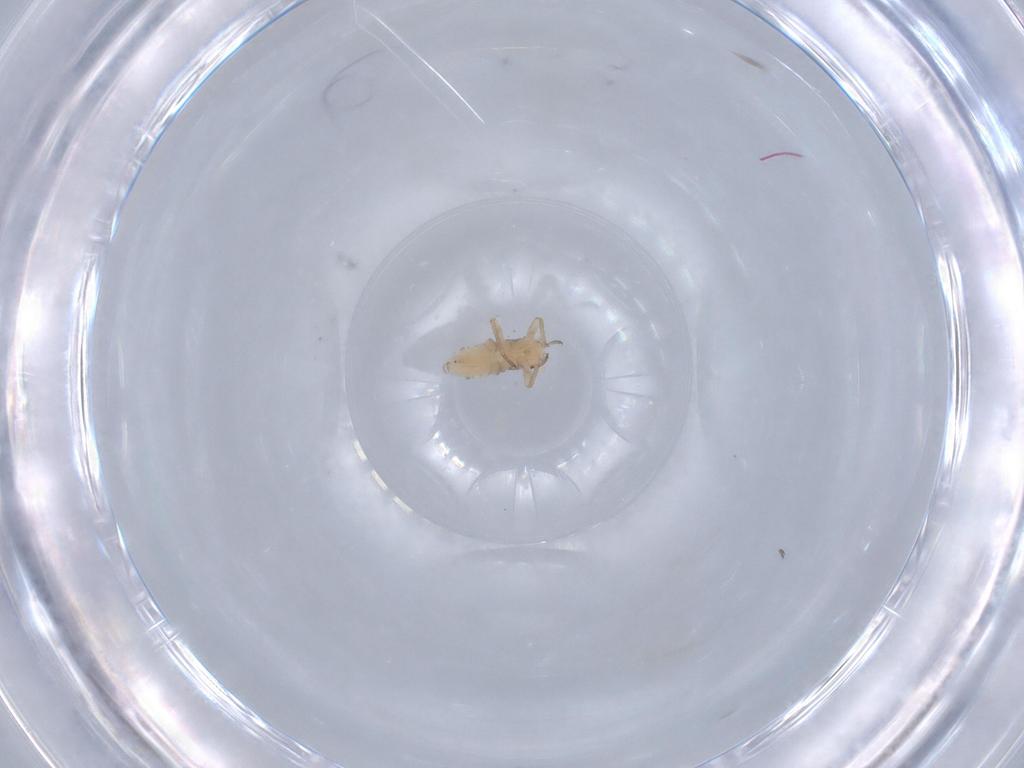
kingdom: Animalia
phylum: Arthropoda
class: Insecta
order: Hemiptera
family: Aphididae
